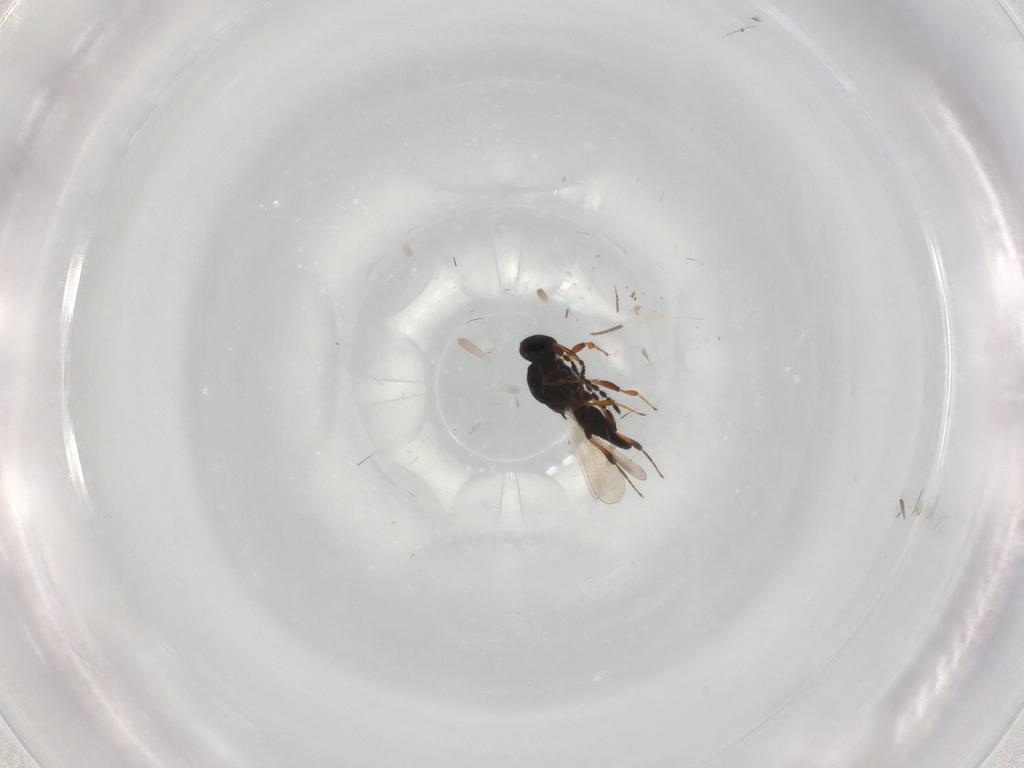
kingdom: Animalia
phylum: Arthropoda
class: Insecta
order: Hymenoptera
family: Platygastridae
